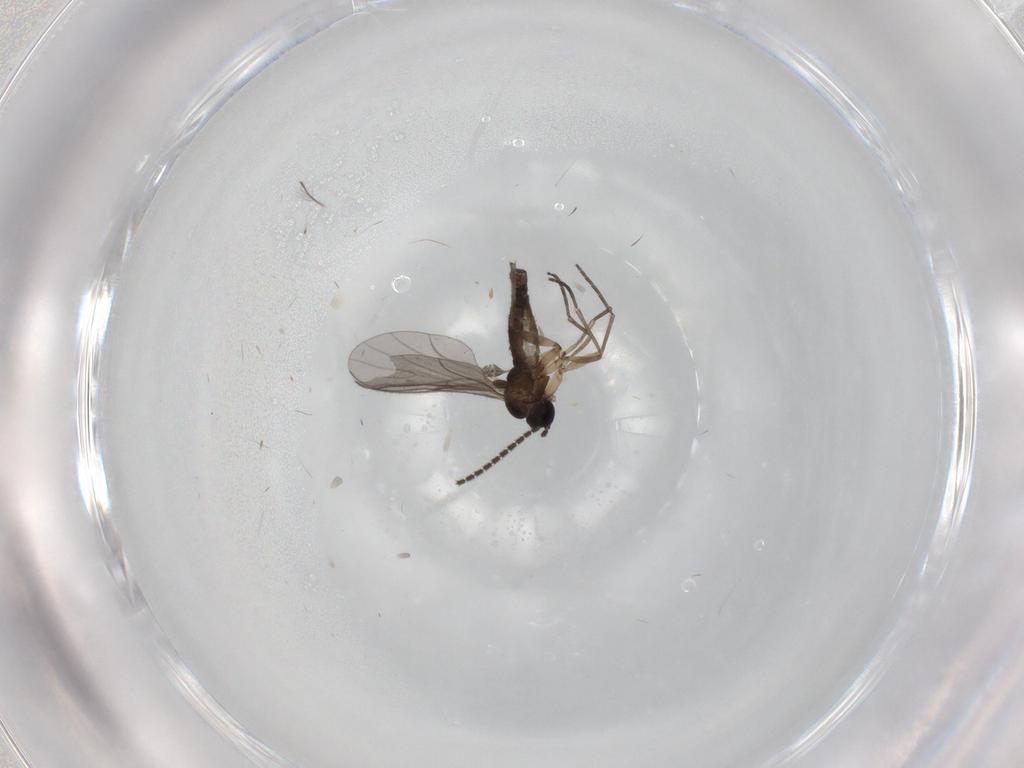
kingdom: Animalia
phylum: Arthropoda
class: Insecta
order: Diptera
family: Sciaridae
